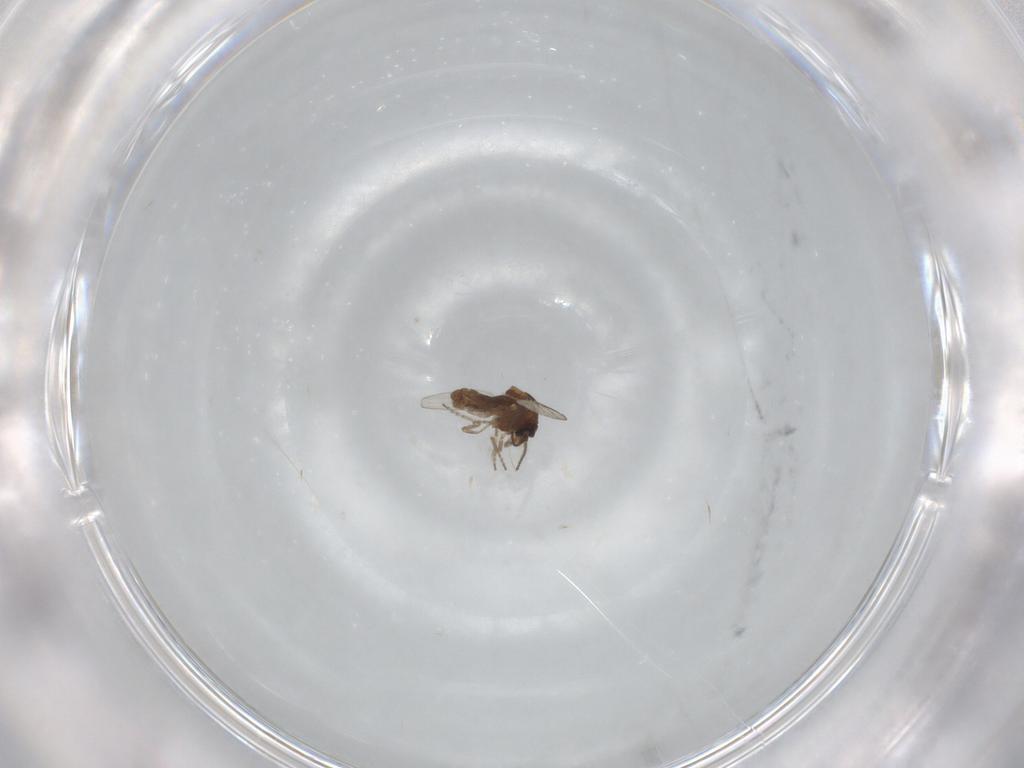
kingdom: Animalia
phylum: Arthropoda
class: Insecta
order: Diptera
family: Ceratopogonidae
